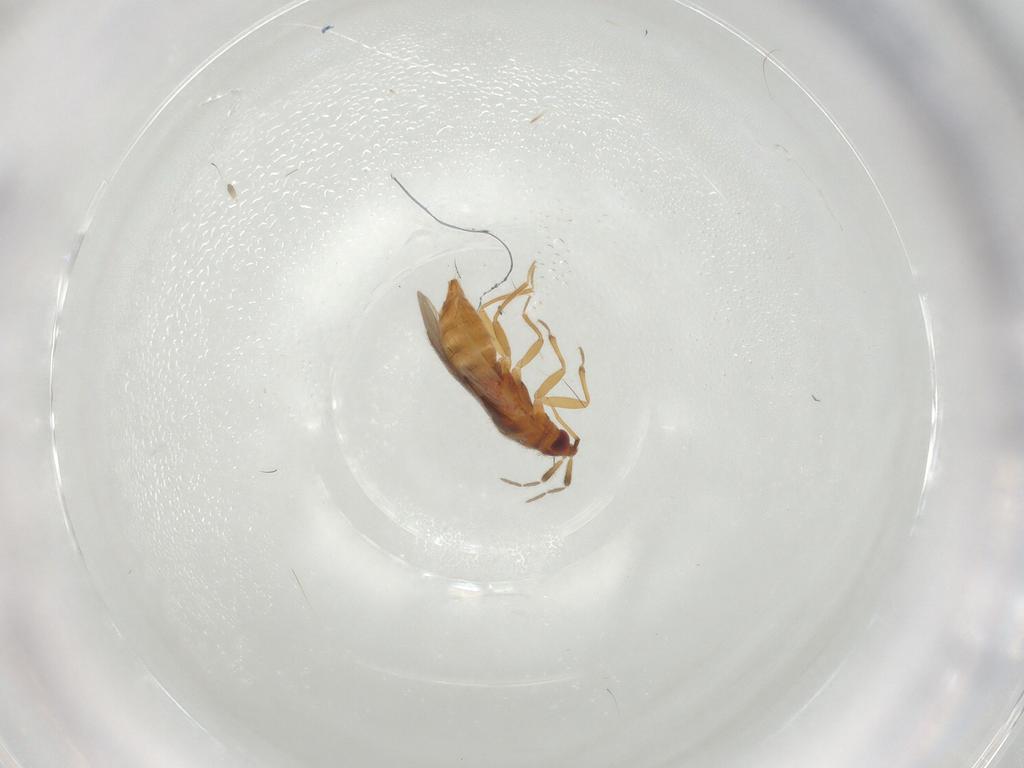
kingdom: Animalia
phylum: Arthropoda
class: Insecta
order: Hemiptera
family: Anthocoridae
